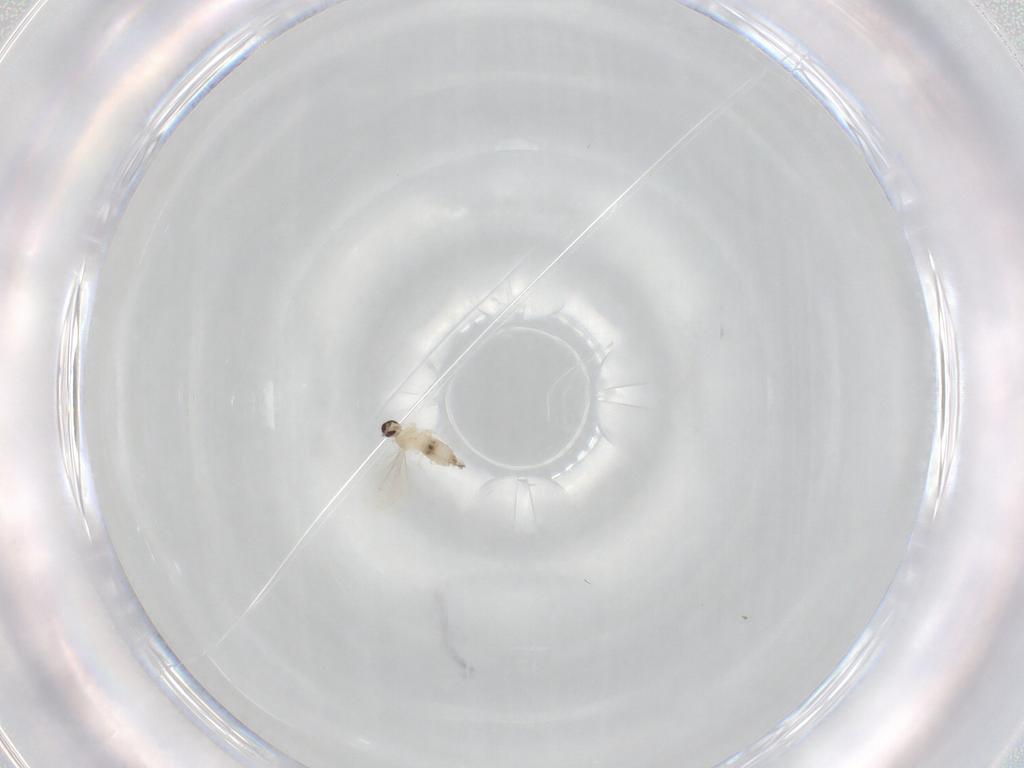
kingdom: Animalia
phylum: Arthropoda
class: Insecta
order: Diptera
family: Cecidomyiidae
